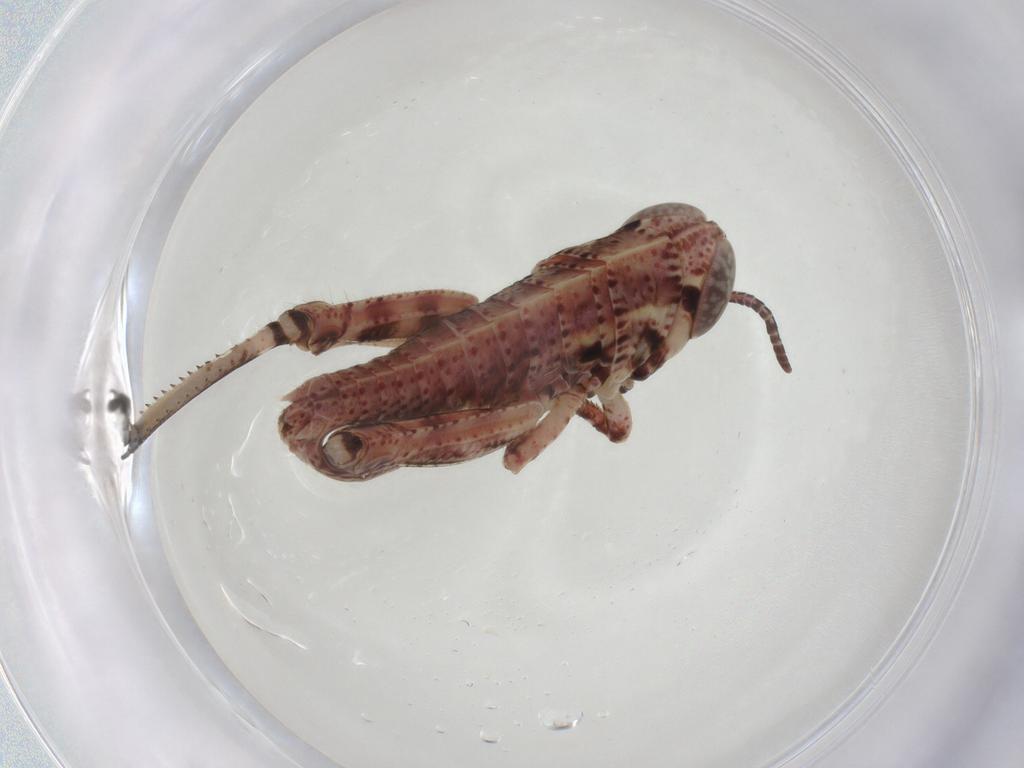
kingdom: Animalia
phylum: Arthropoda
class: Insecta
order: Orthoptera
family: Acrididae
